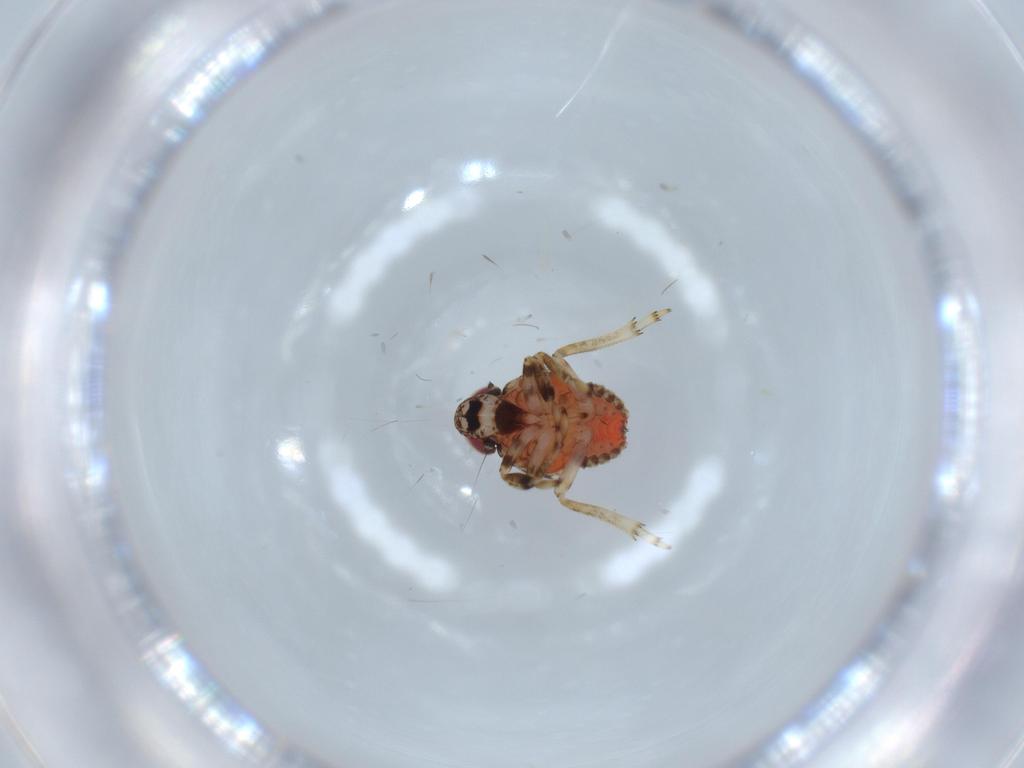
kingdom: Animalia
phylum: Arthropoda
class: Insecta
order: Hemiptera
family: Issidae
